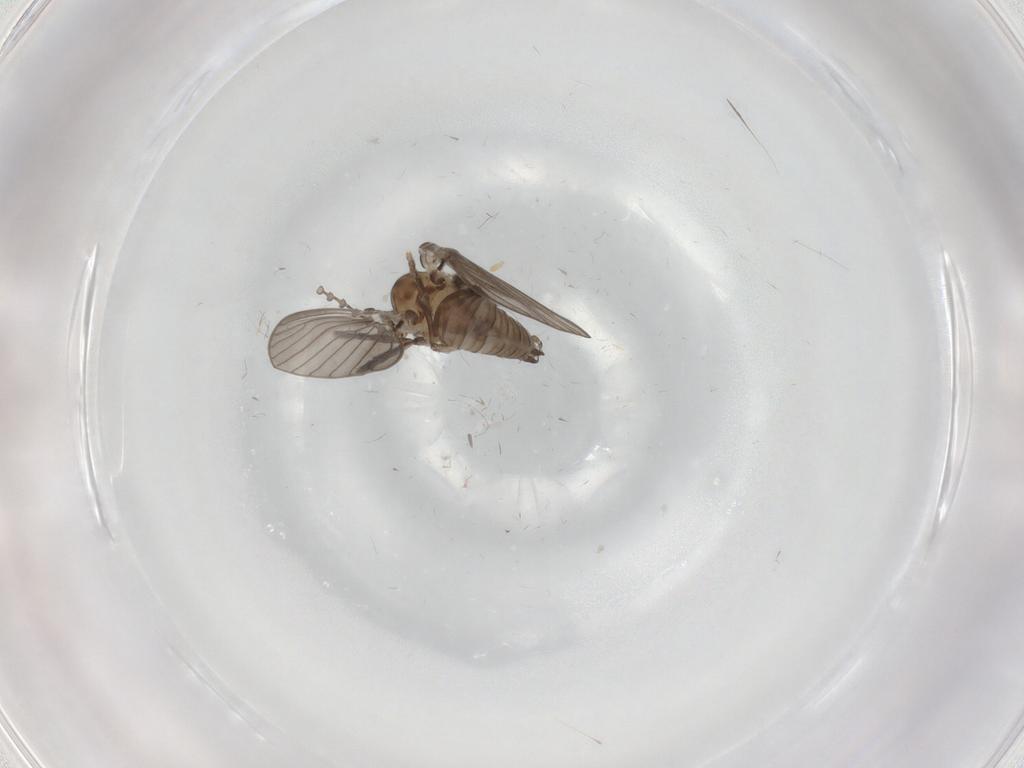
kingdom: Animalia
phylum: Arthropoda
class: Insecta
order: Diptera
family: Psychodidae
